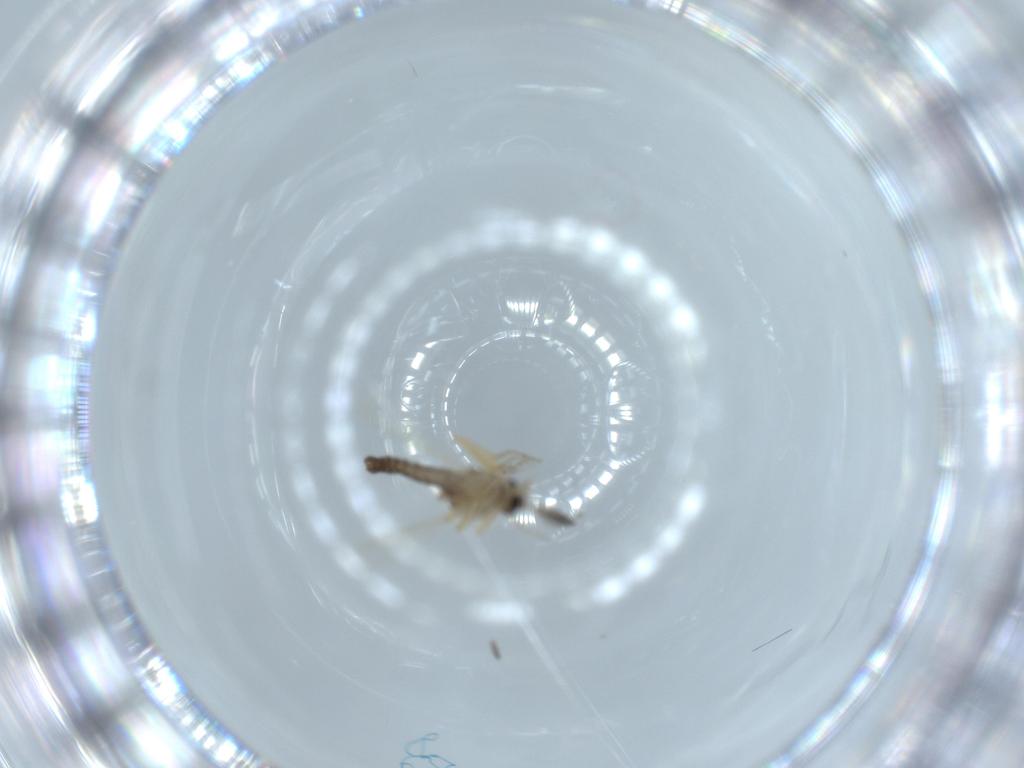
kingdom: Animalia
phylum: Arthropoda
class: Insecta
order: Diptera
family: Ceratopogonidae
